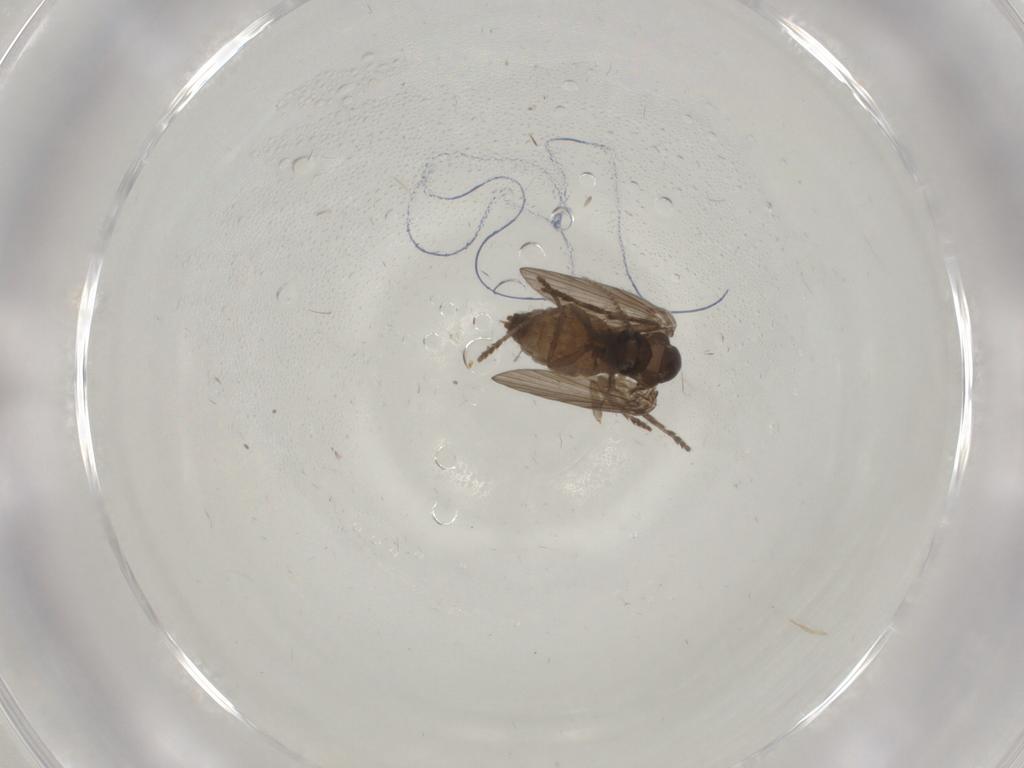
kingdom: Animalia
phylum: Arthropoda
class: Insecta
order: Diptera
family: Psychodidae
